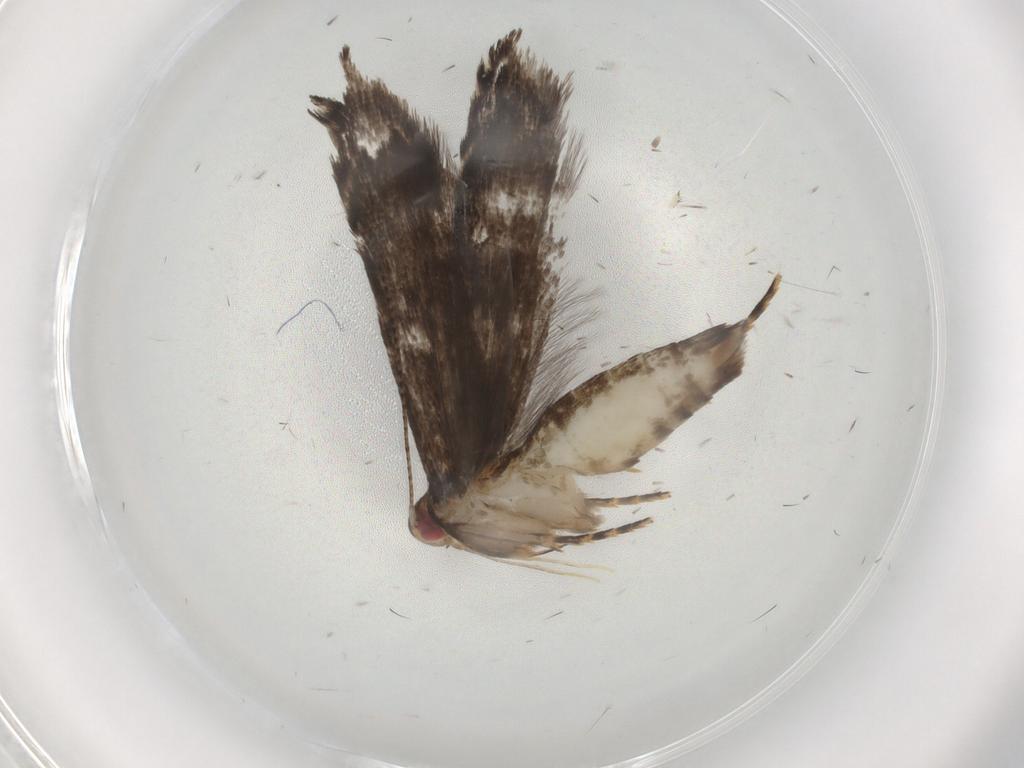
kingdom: Animalia
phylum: Arthropoda
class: Insecta
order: Lepidoptera
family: Gelechiidae
